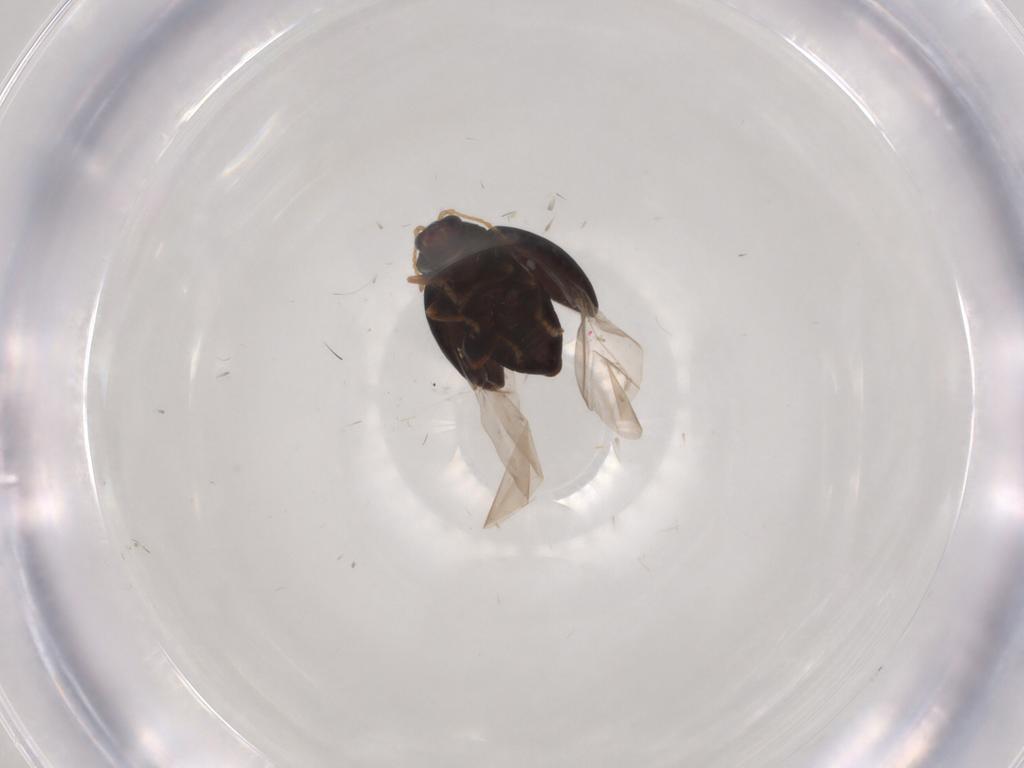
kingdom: Animalia
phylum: Arthropoda
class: Insecta
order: Coleoptera
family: Chrysomelidae
